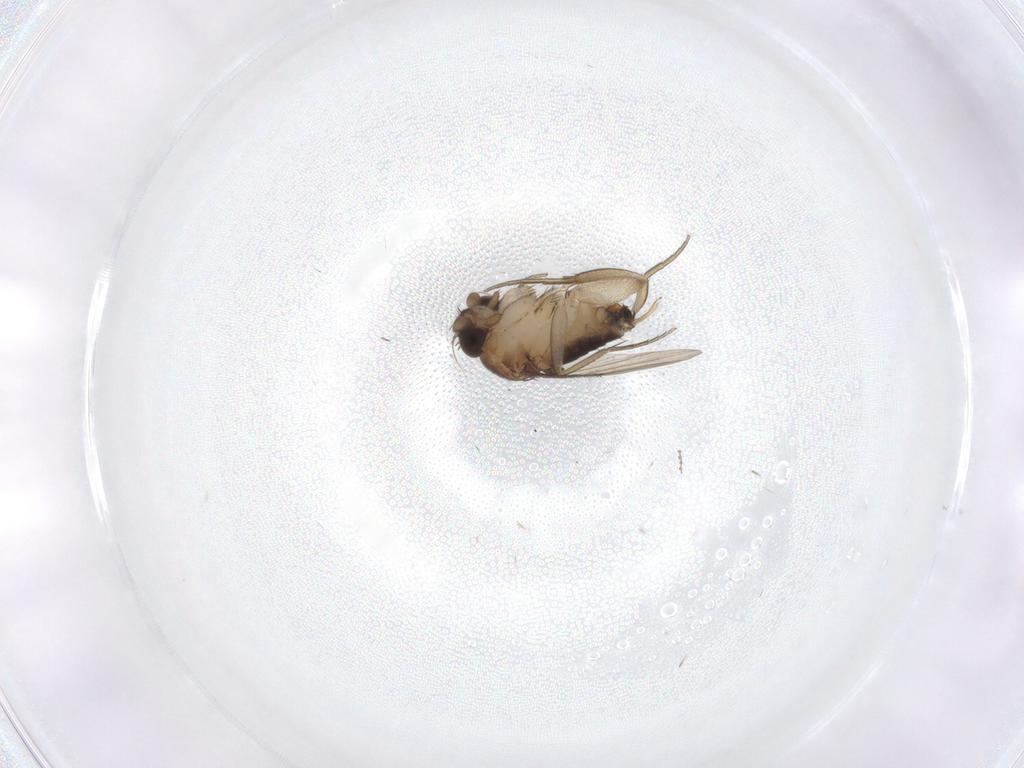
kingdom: Animalia
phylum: Arthropoda
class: Insecta
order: Diptera
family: Cecidomyiidae
